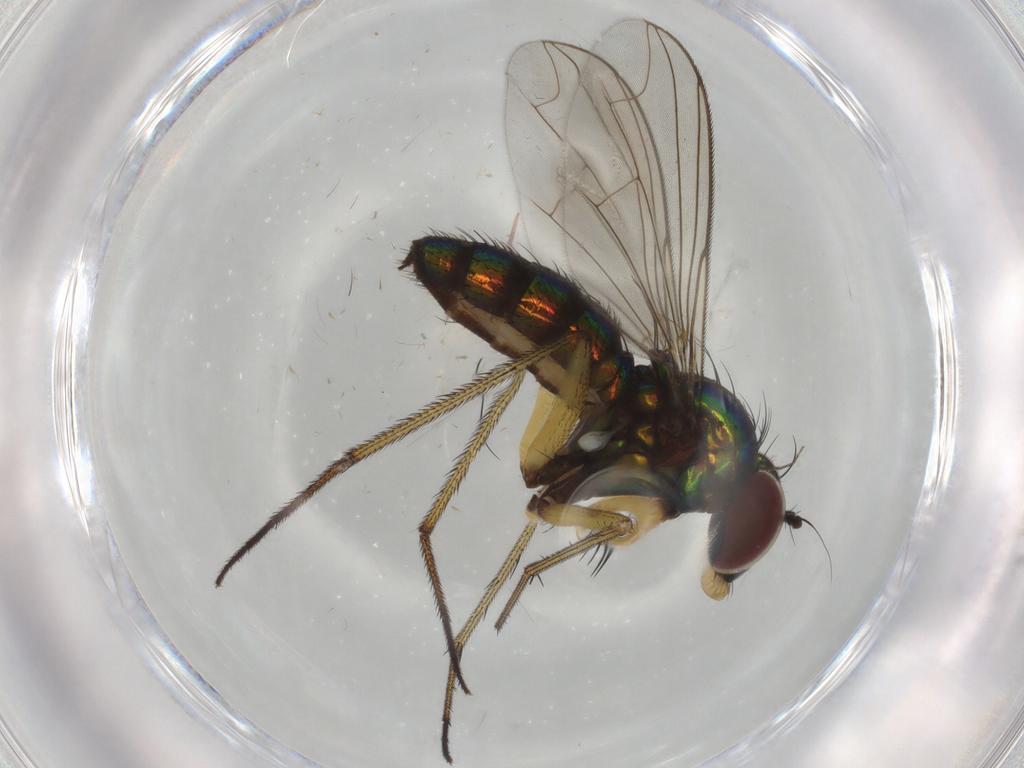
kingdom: Animalia
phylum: Arthropoda
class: Insecta
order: Diptera
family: Dolichopodidae
